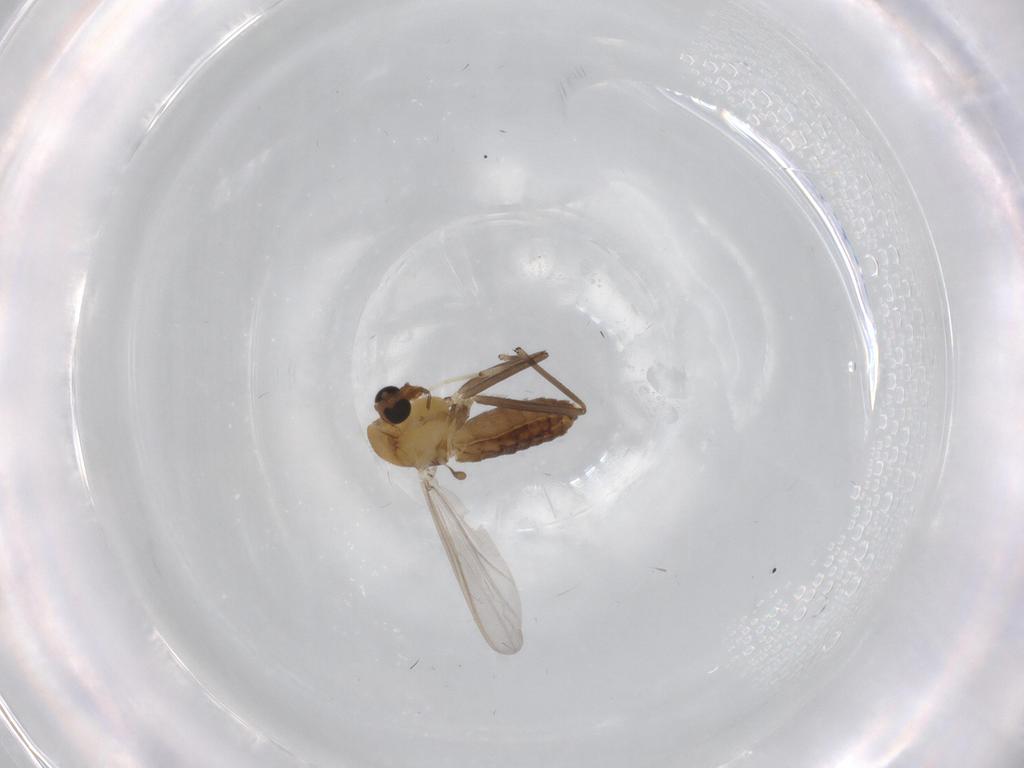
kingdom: Animalia
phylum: Arthropoda
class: Insecta
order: Diptera
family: Chironomidae
